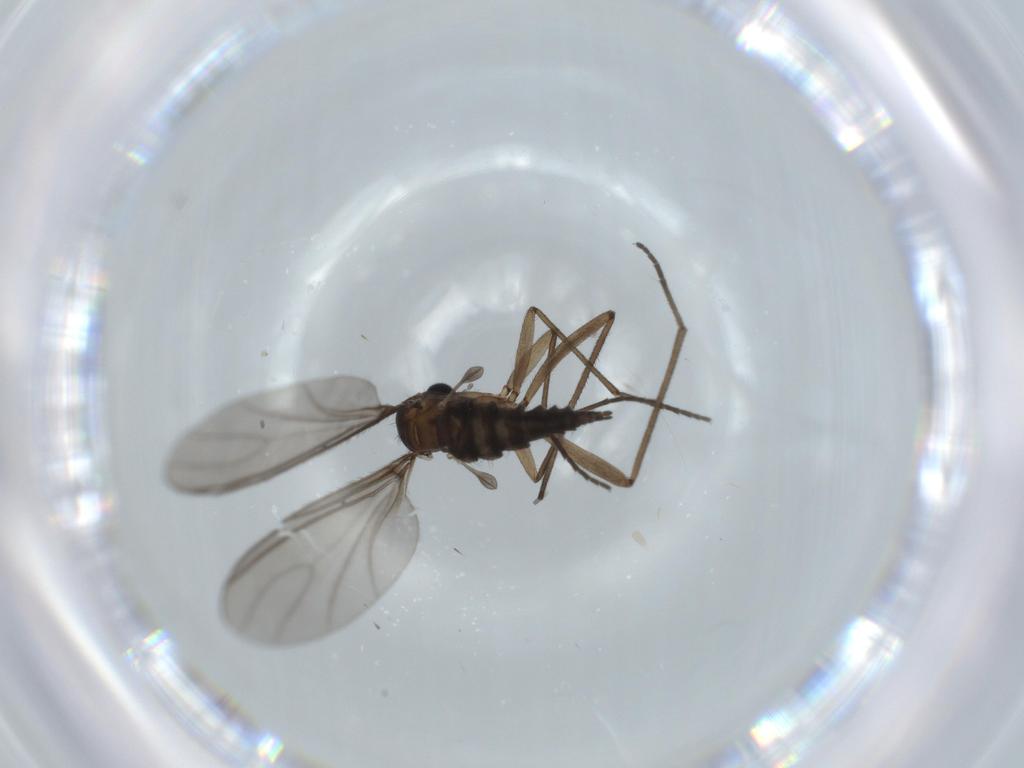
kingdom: Animalia
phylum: Arthropoda
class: Insecta
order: Diptera
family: Sciaridae
